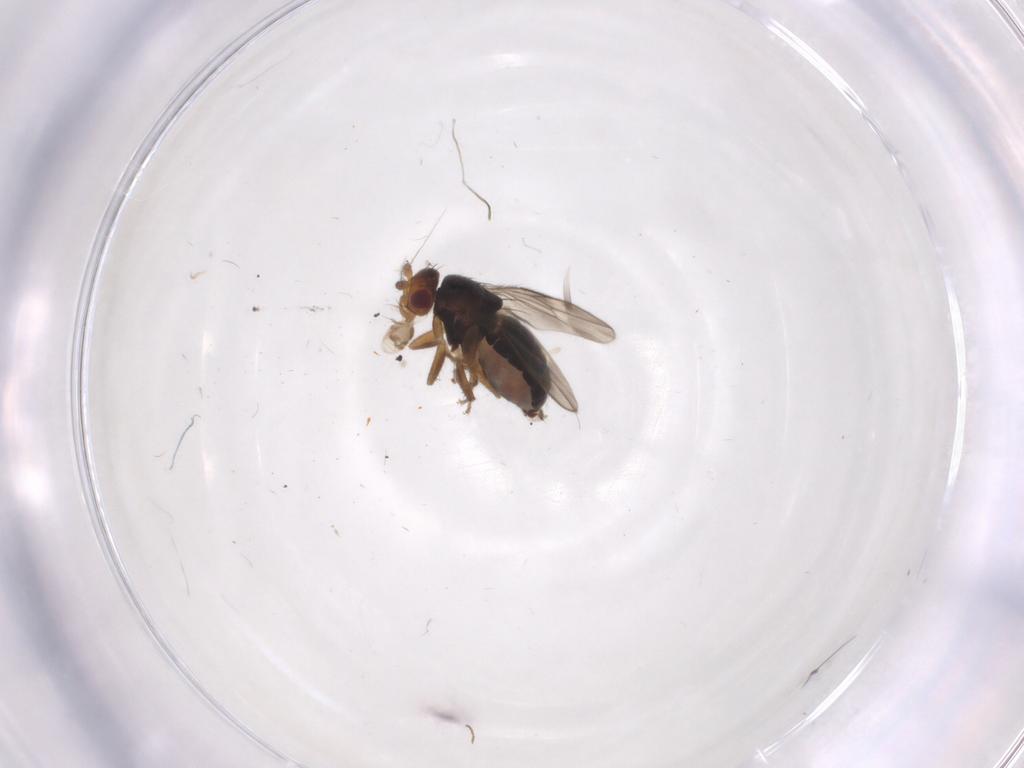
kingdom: Animalia
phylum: Arthropoda
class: Insecta
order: Diptera
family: Sphaeroceridae
